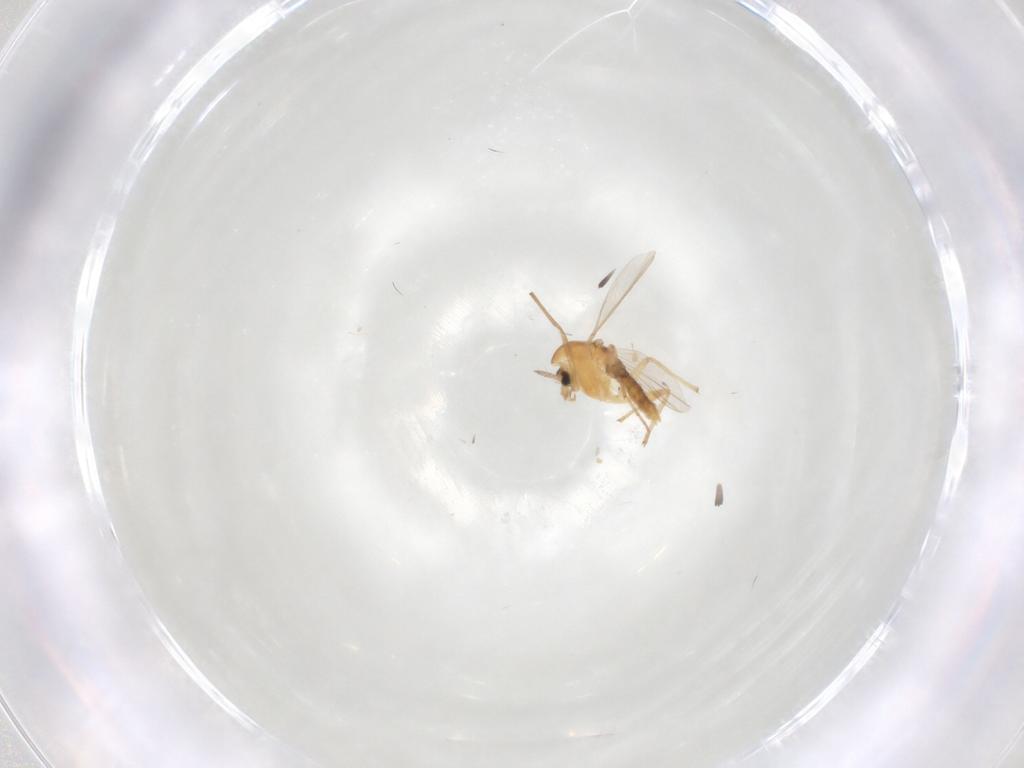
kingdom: Animalia
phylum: Arthropoda
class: Insecta
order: Diptera
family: Chironomidae
